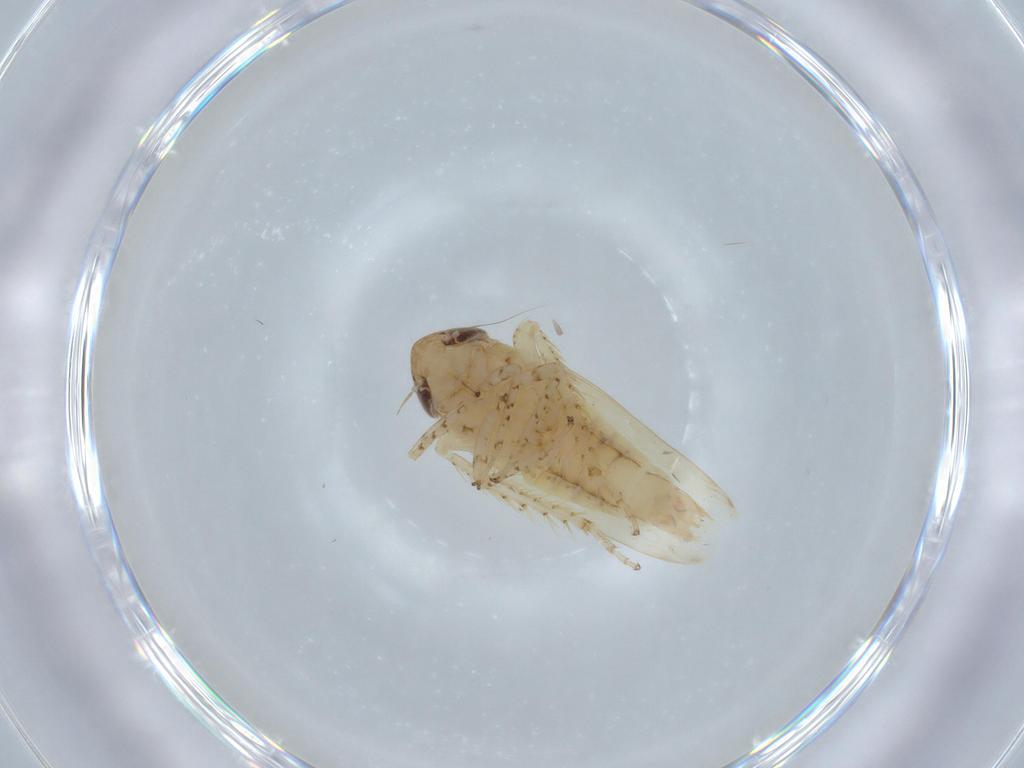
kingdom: Animalia
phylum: Arthropoda
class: Insecta
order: Hemiptera
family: Cicadellidae
